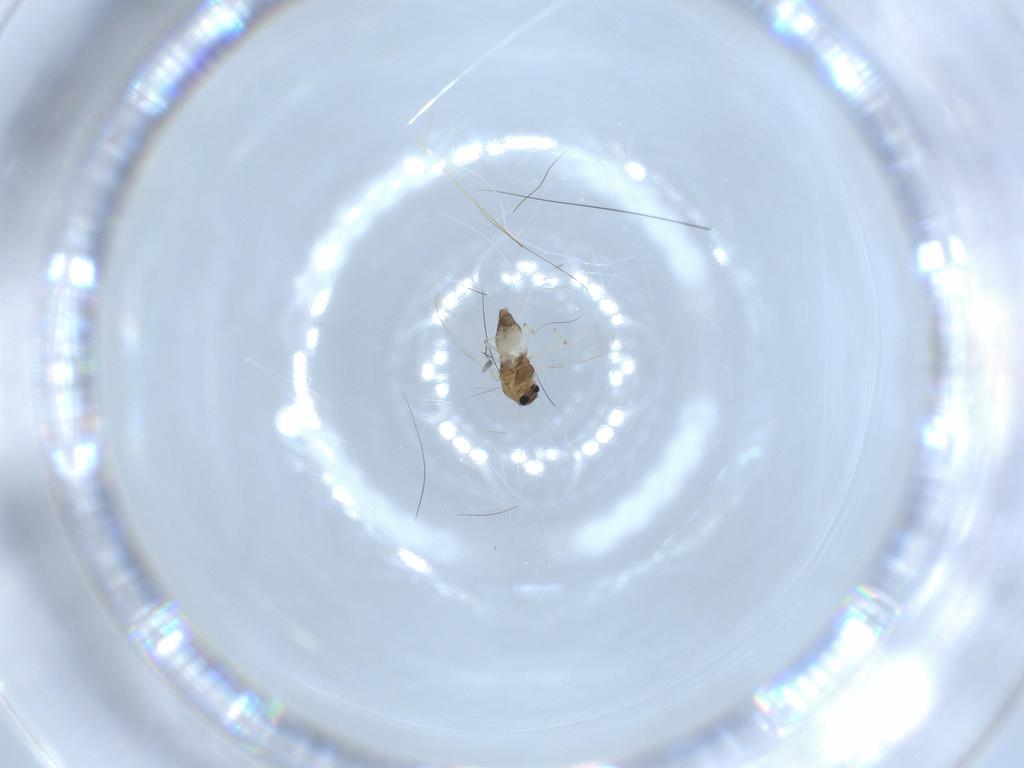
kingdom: Animalia
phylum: Arthropoda
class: Insecta
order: Diptera
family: Chironomidae
